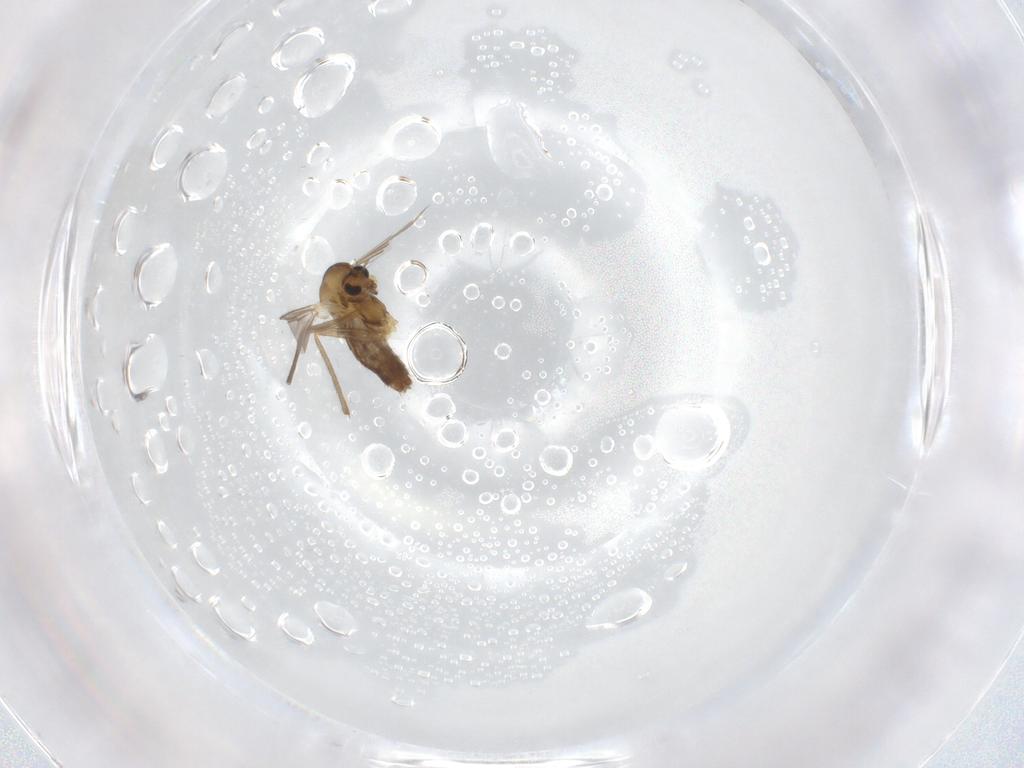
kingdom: Animalia
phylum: Arthropoda
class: Insecta
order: Diptera
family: Chironomidae
